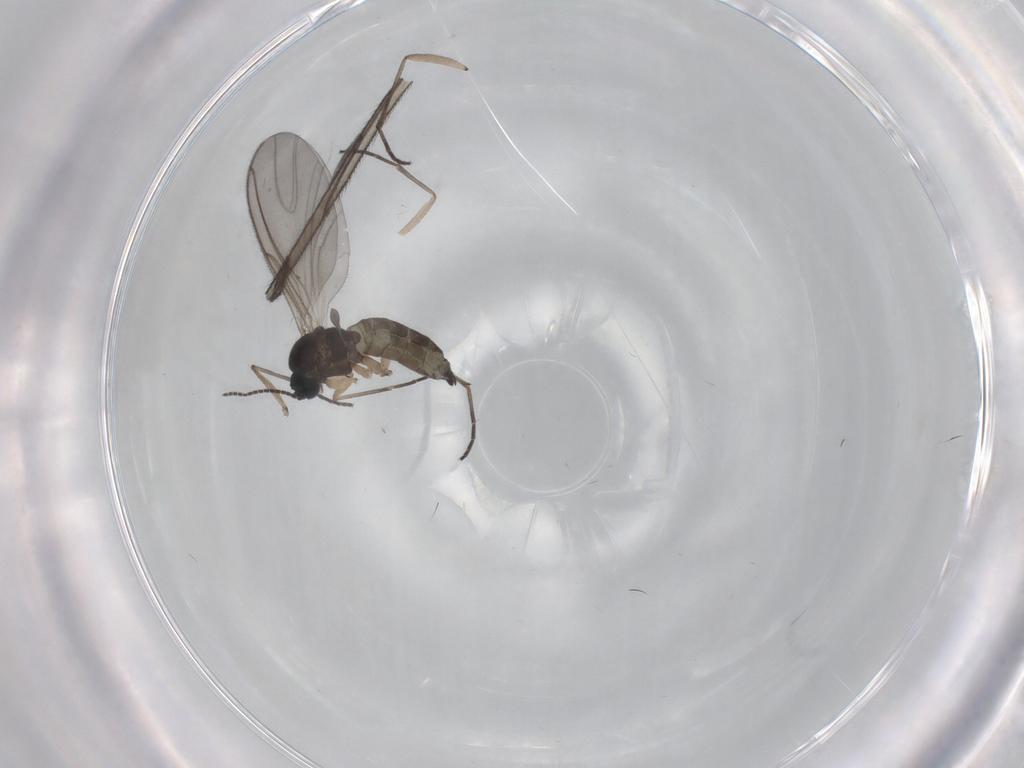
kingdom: Animalia
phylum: Arthropoda
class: Insecta
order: Diptera
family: Sciaridae
